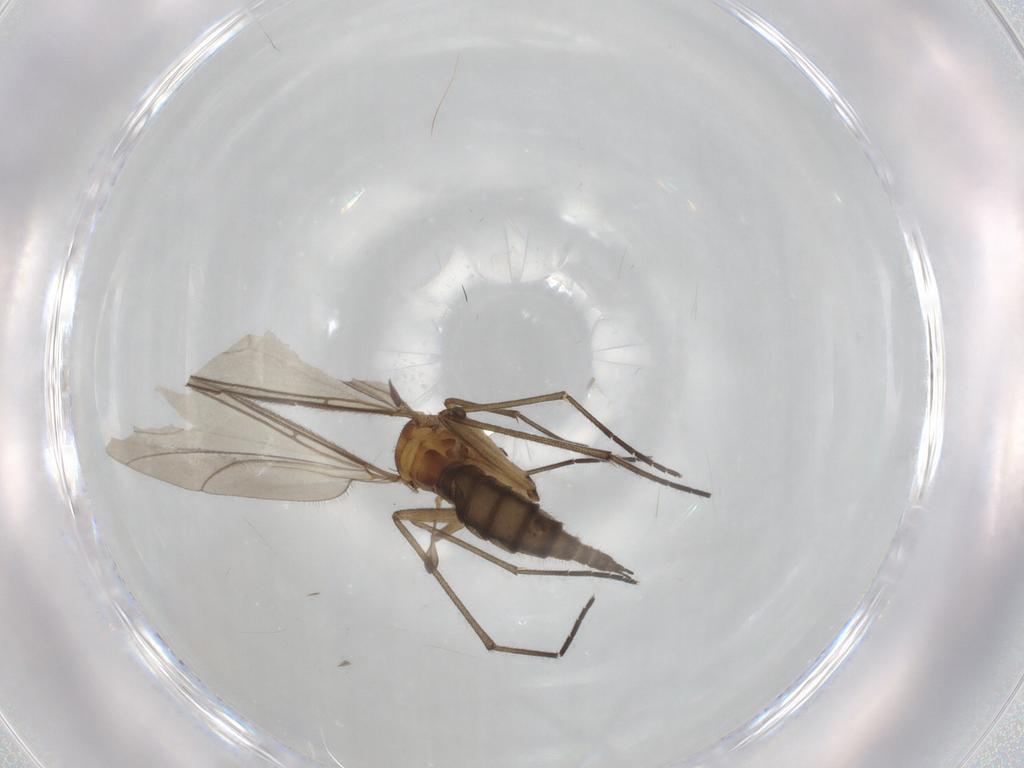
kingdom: Animalia
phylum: Arthropoda
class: Insecta
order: Diptera
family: Sciaridae
